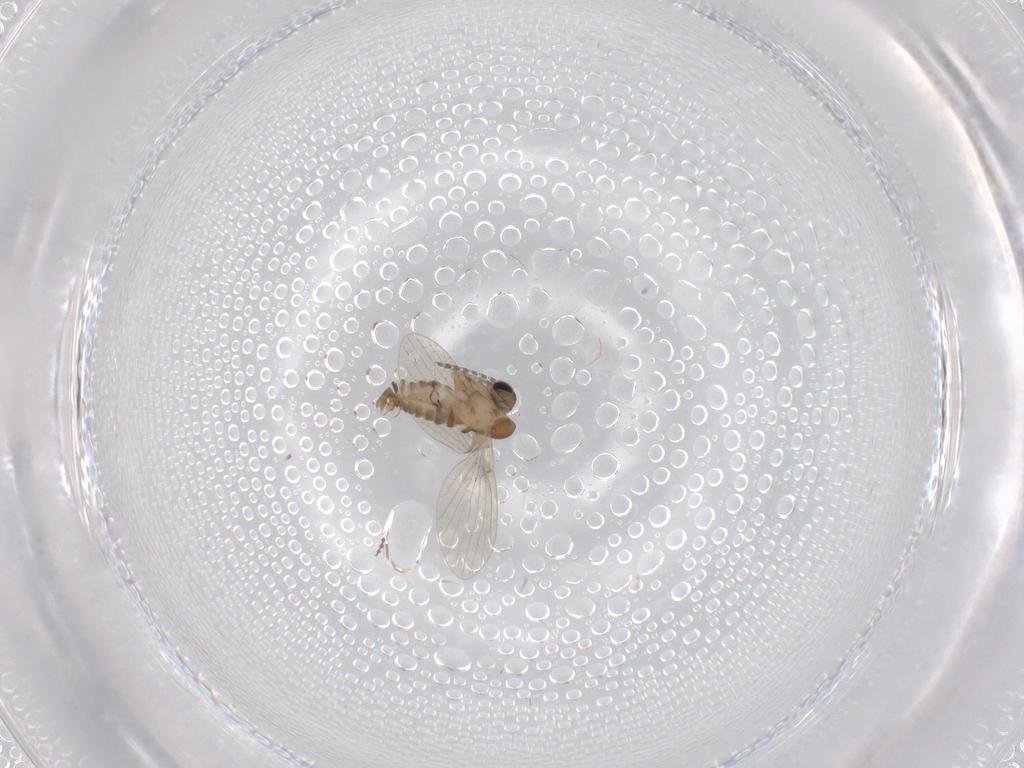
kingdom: Animalia
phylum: Arthropoda
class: Insecta
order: Diptera
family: Cecidomyiidae
